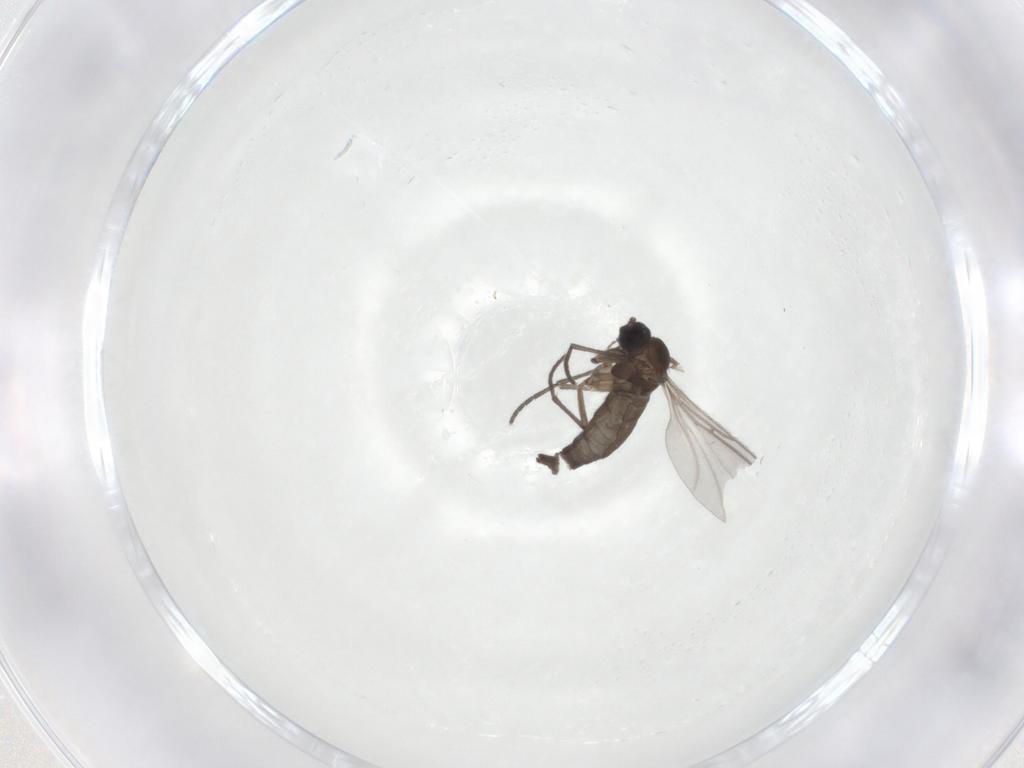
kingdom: Animalia
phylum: Arthropoda
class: Insecta
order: Diptera
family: Sciaridae
